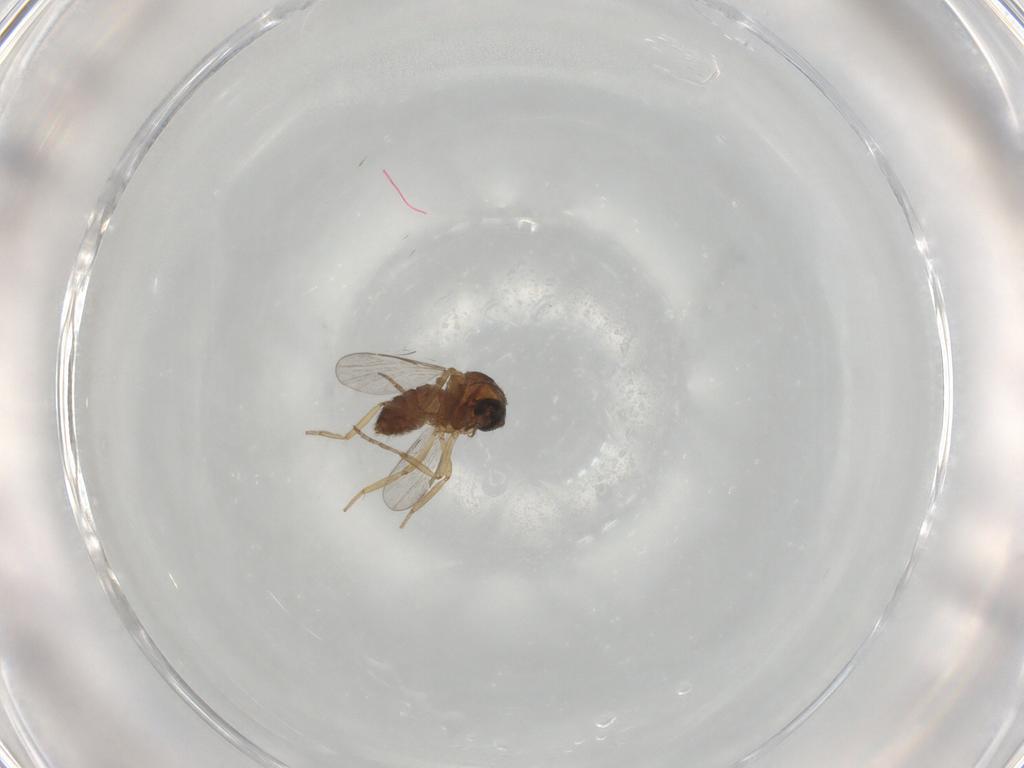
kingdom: Animalia
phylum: Arthropoda
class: Insecta
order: Diptera
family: Ceratopogonidae
